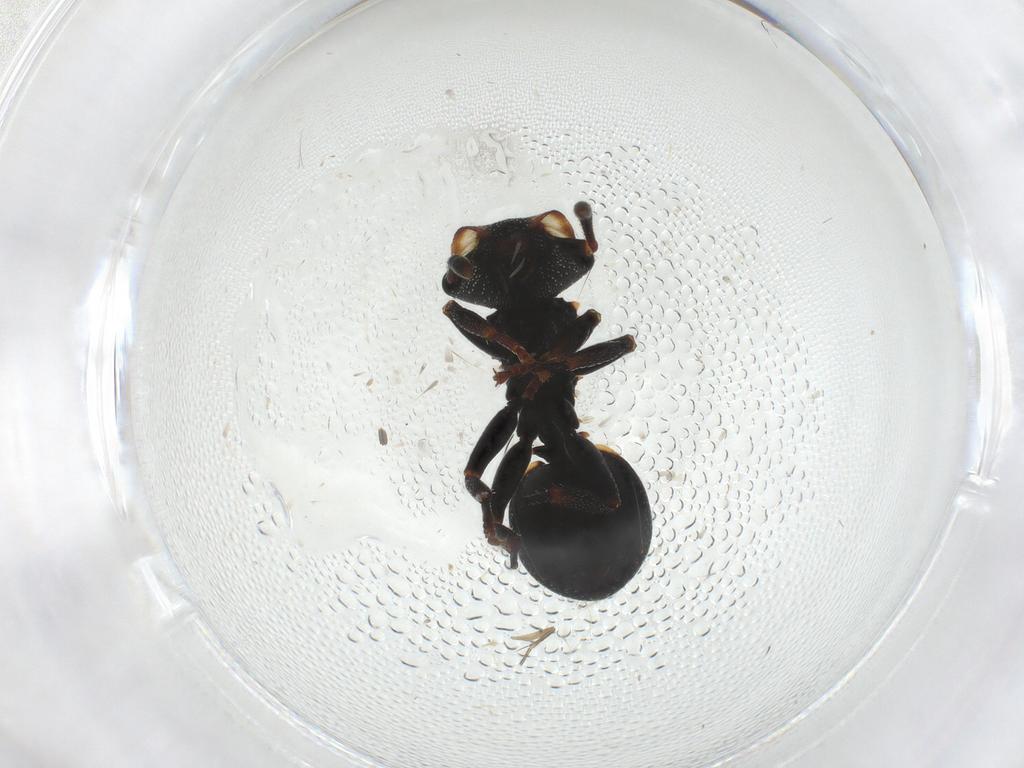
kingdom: Animalia
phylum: Arthropoda
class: Insecta
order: Hymenoptera
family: Formicidae
